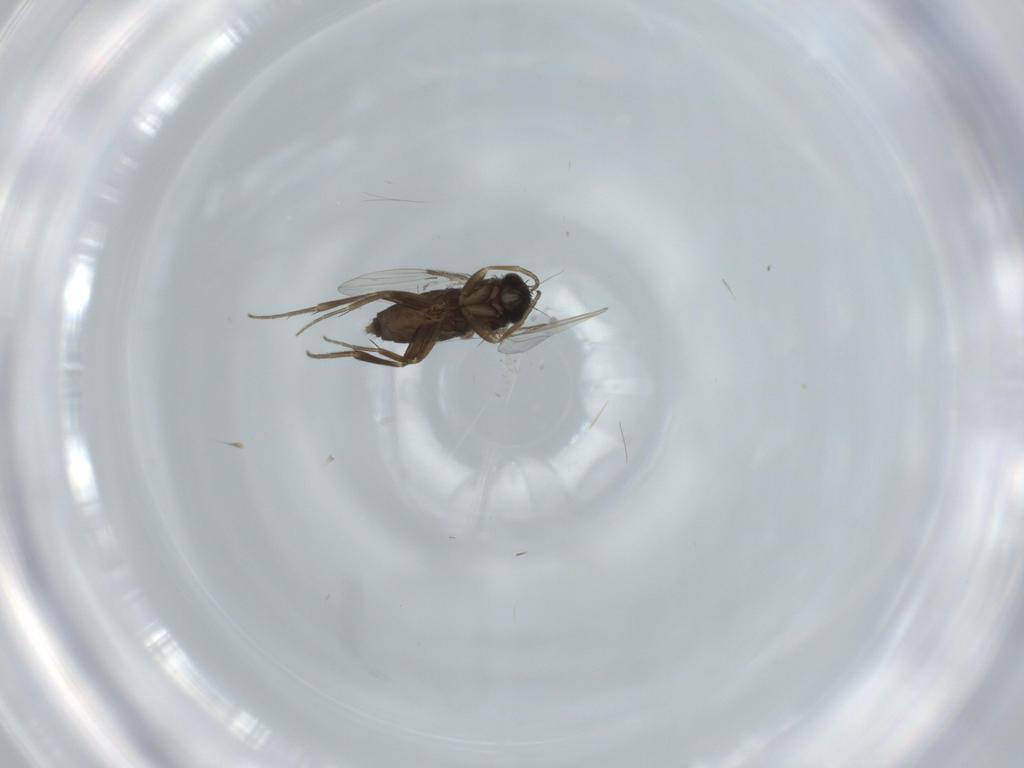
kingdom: Animalia
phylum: Arthropoda
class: Insecta
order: Diptera
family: Phoridae
